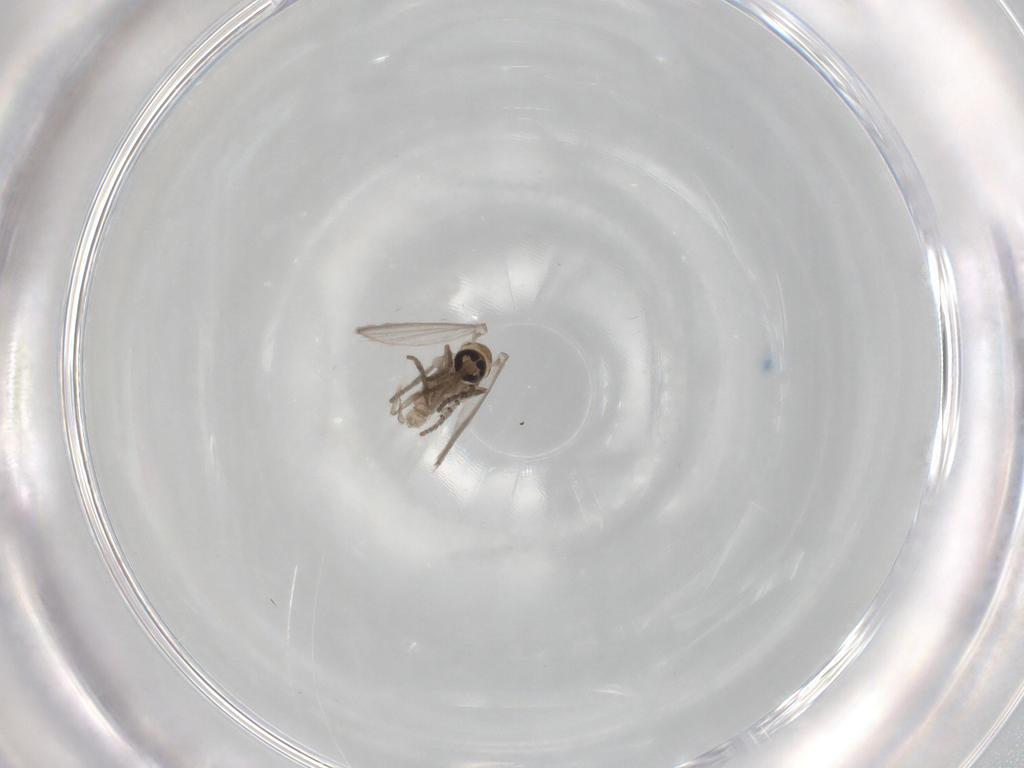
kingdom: Animalia
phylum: Arthropoda
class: Insecta
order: Diptera
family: Psychodidae
